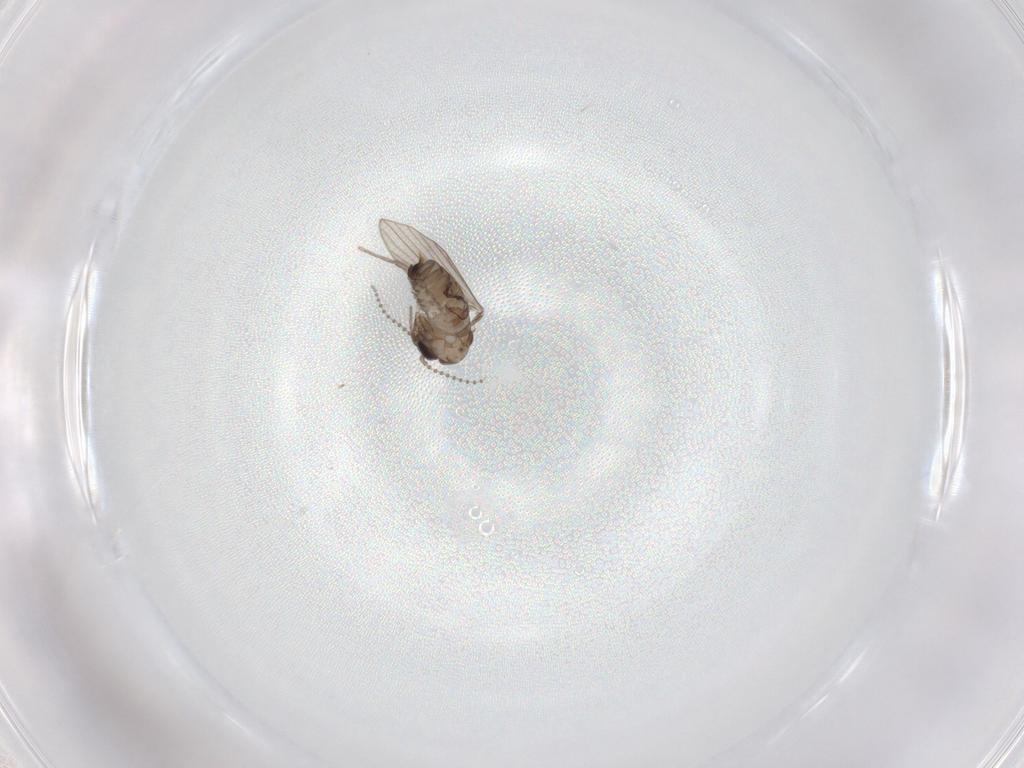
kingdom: Animalia
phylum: Arthropoda
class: Insecta
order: Diptera
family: Psychodidae
